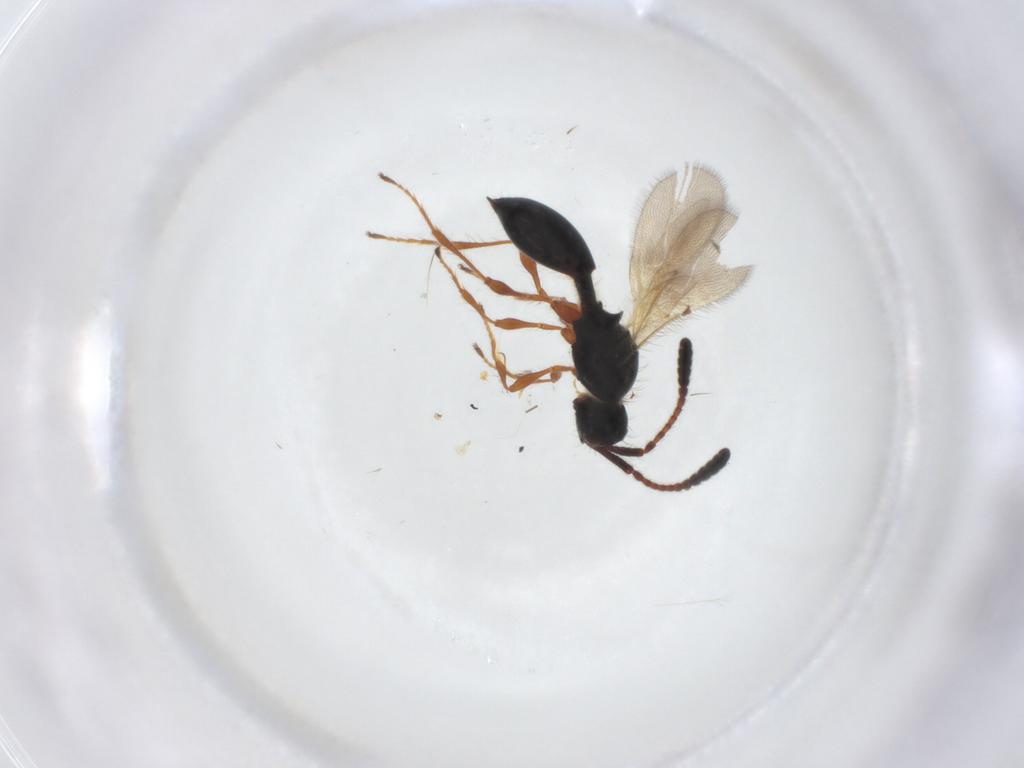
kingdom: Animalia
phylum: Arthropoda
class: Insecta
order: Hymenoptera
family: Diapriidae
